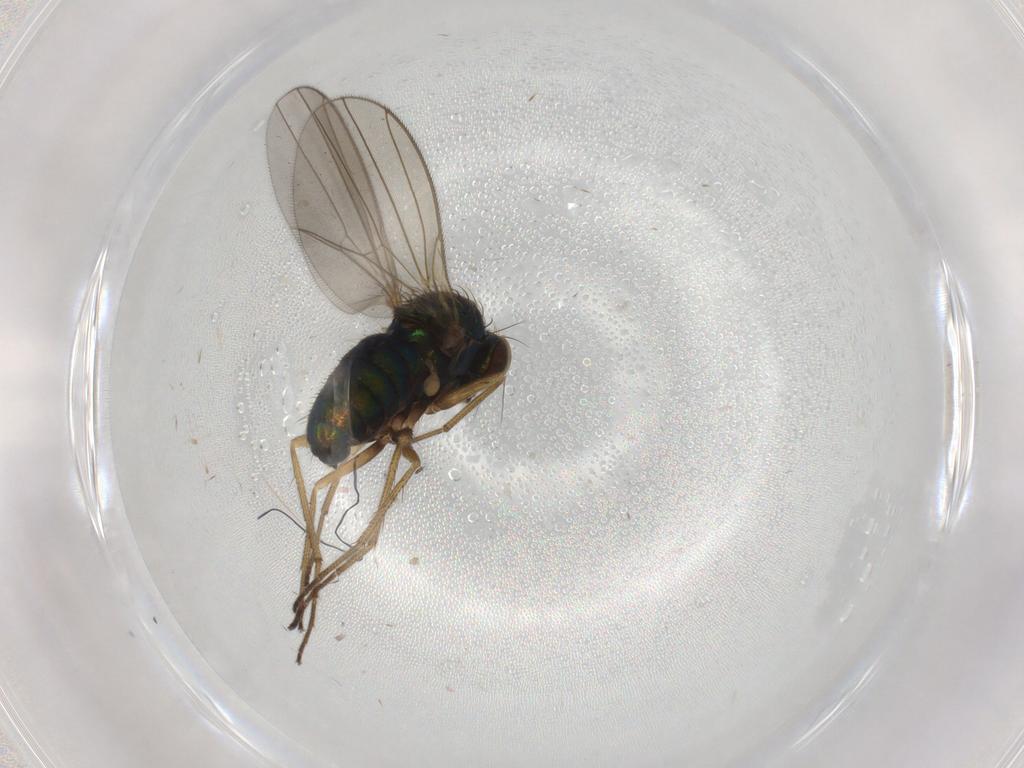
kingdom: Animalia
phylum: Arthropoda
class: Insecta
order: Diptera
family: Dolichopodidae
